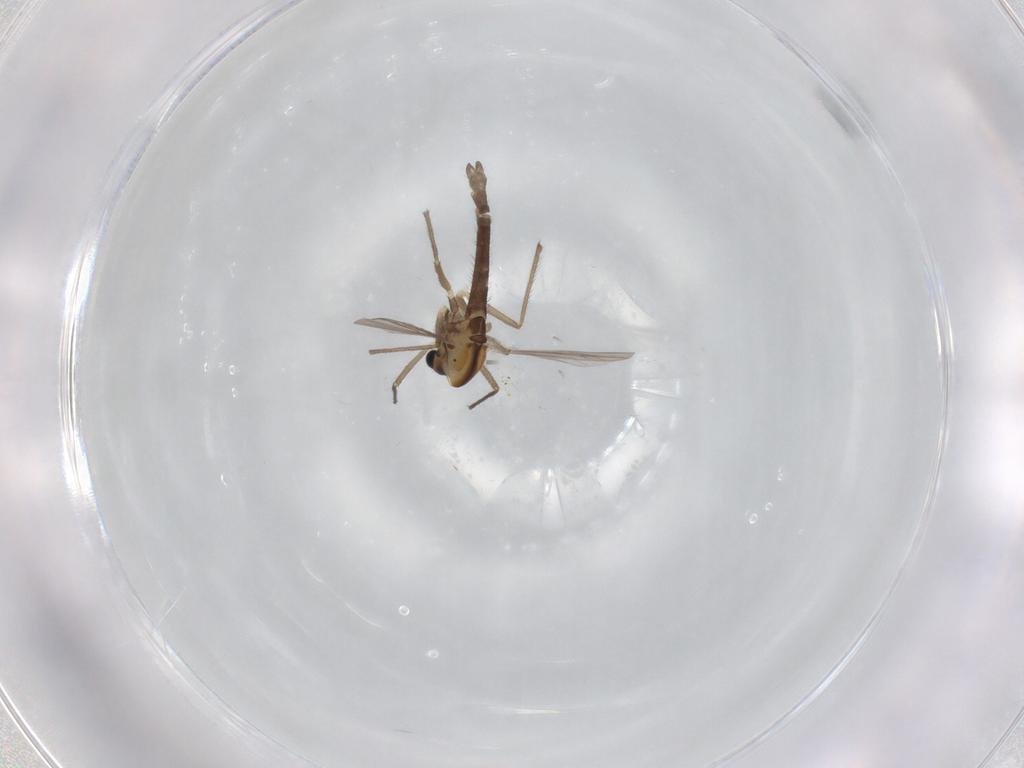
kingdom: Animalia
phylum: Arthropoda
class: Insecta
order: Diptera
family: Chironomidae
